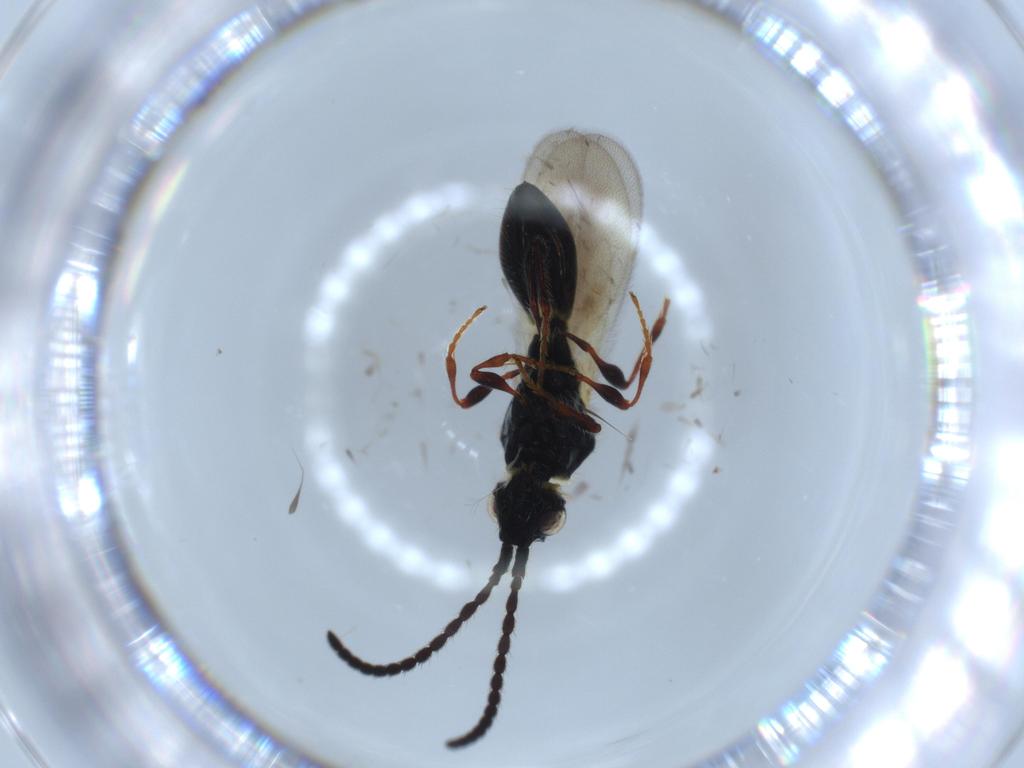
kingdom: Animalia
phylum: Arthropoda
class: Insecta
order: Hymenoptera
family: Diapriidae
